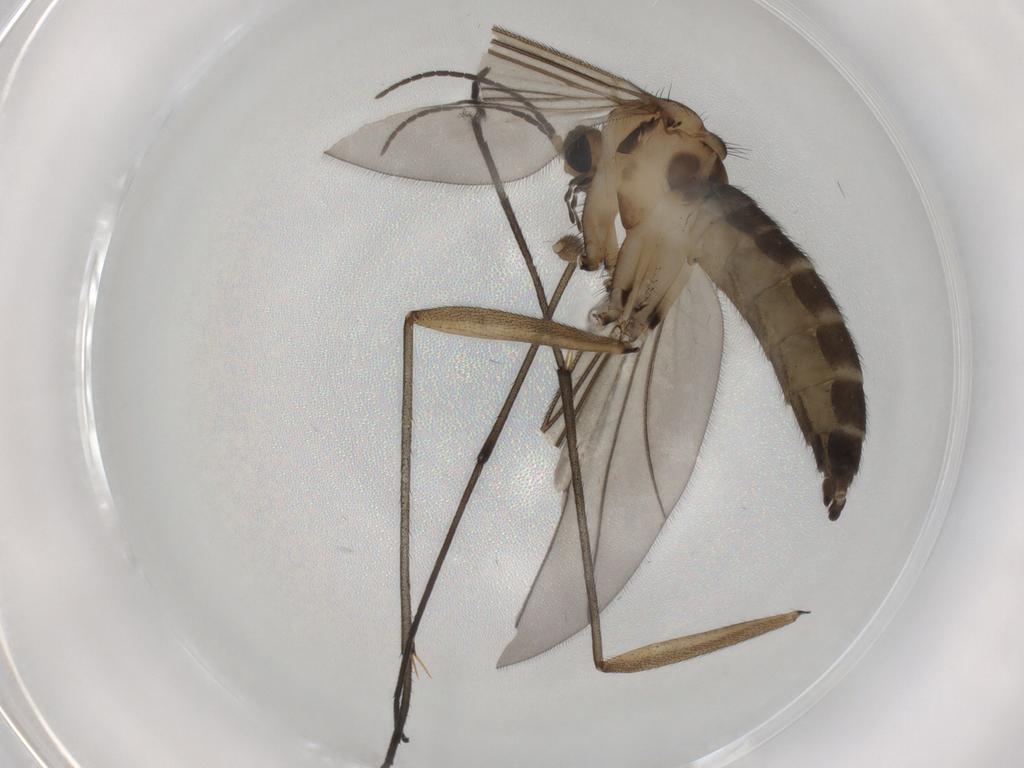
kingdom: Animalia
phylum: Arthropoda
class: Insecta
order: Diptera
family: Sciaridae
